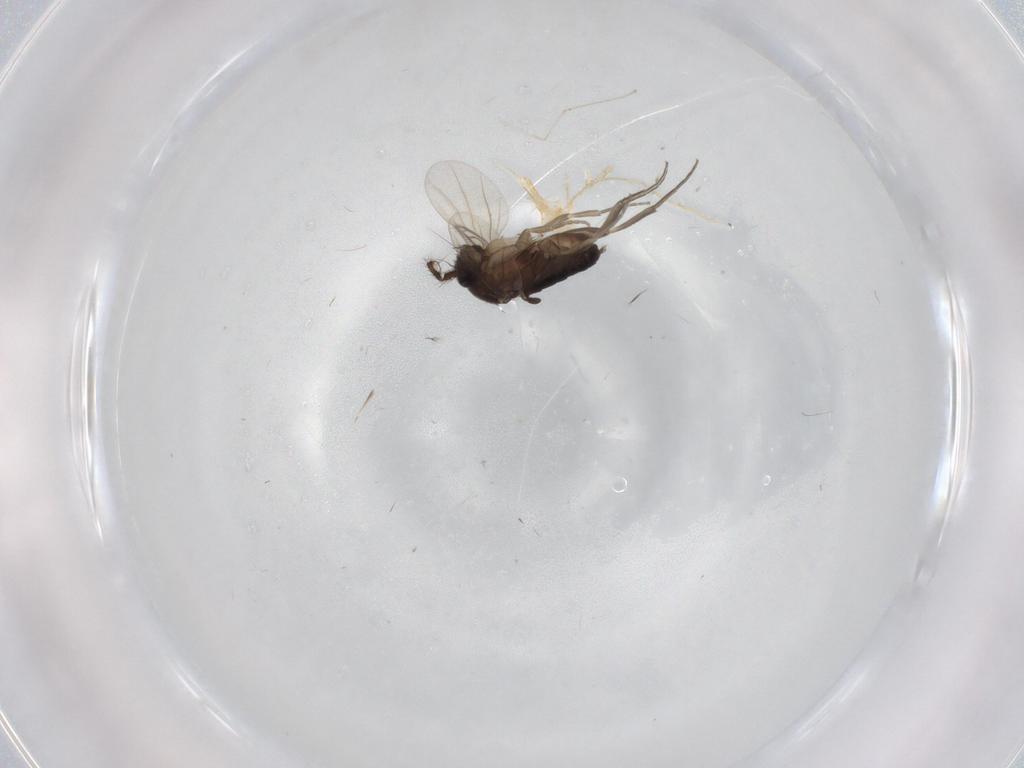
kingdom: Animalia
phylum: Arthropoda
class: Insecta
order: Diptera
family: Phoridae
